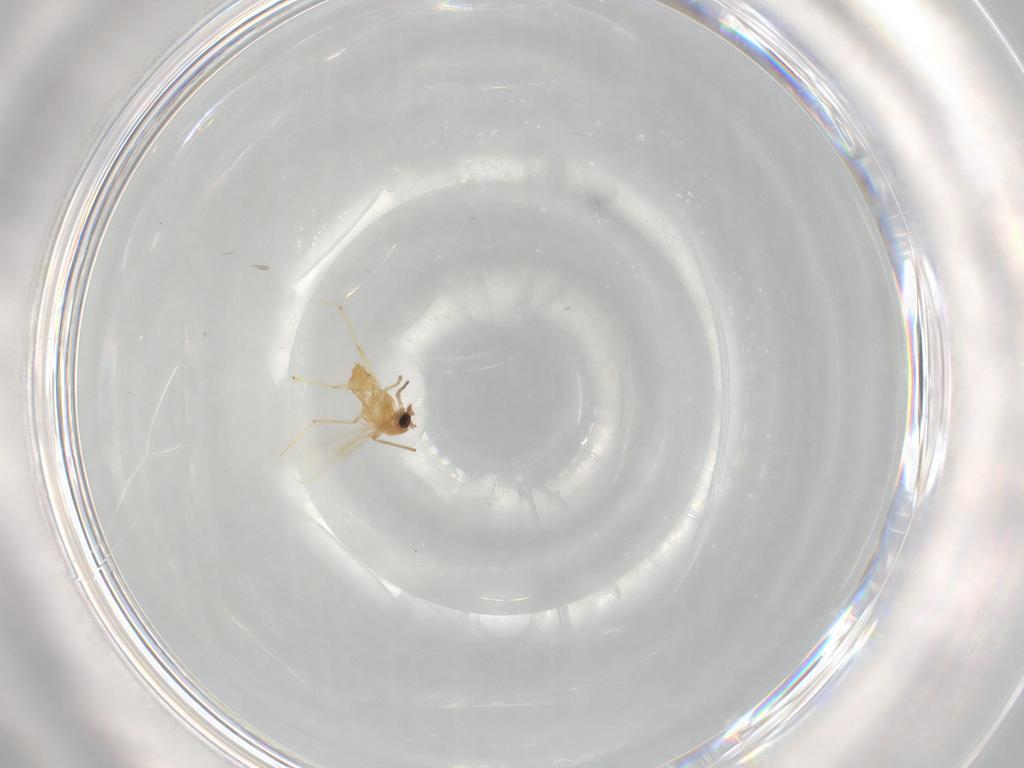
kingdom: Animalia
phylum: Arthropoda
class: Insecta
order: Diptera
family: Chironomidae
